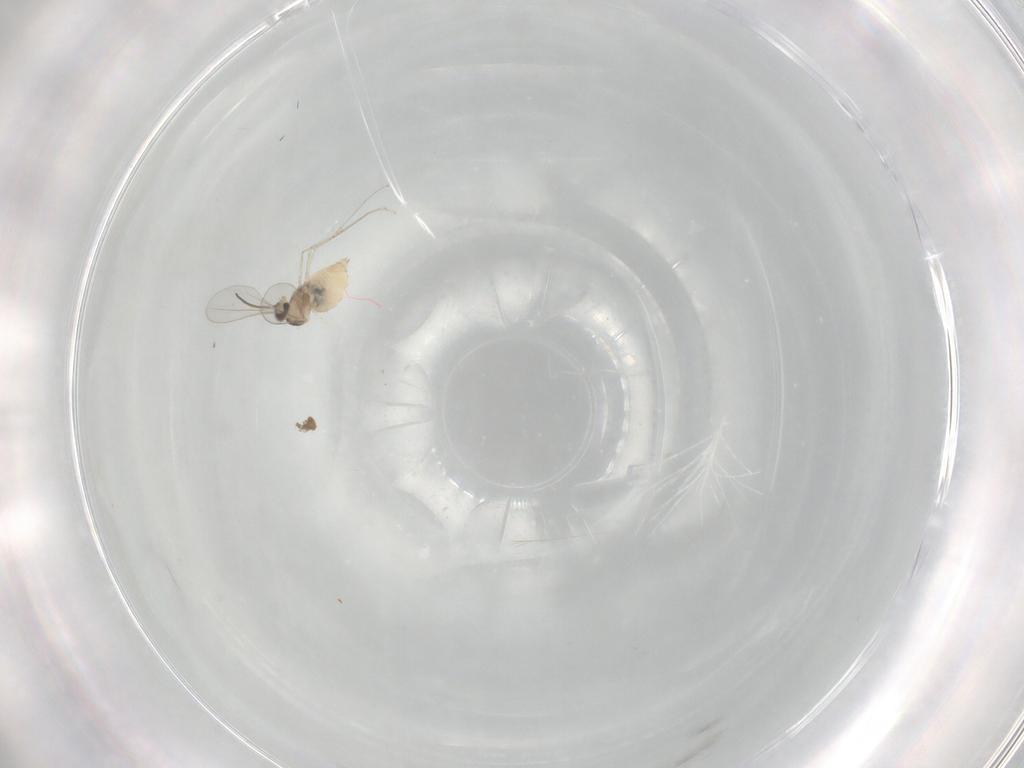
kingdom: Animalia
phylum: Arthropoda
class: Insecta
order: Diptera
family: Cecidomyiidae
